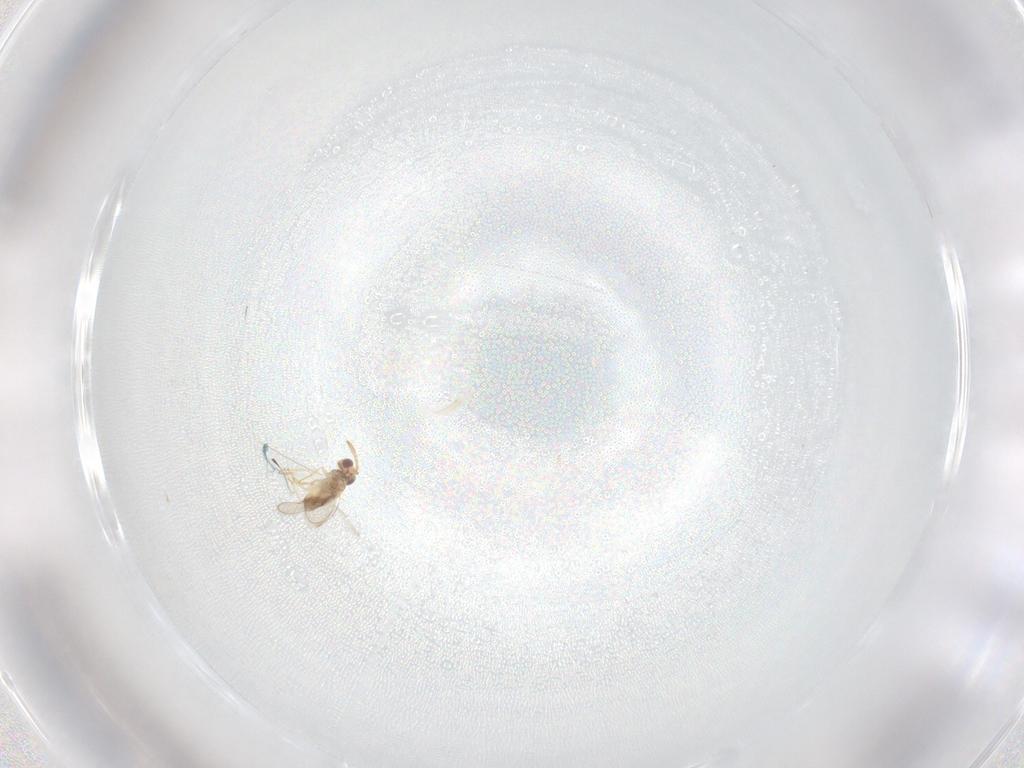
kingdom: Animalia
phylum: Arthropoda
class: Insecta
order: Hymenoptera
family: Aphelinidae
